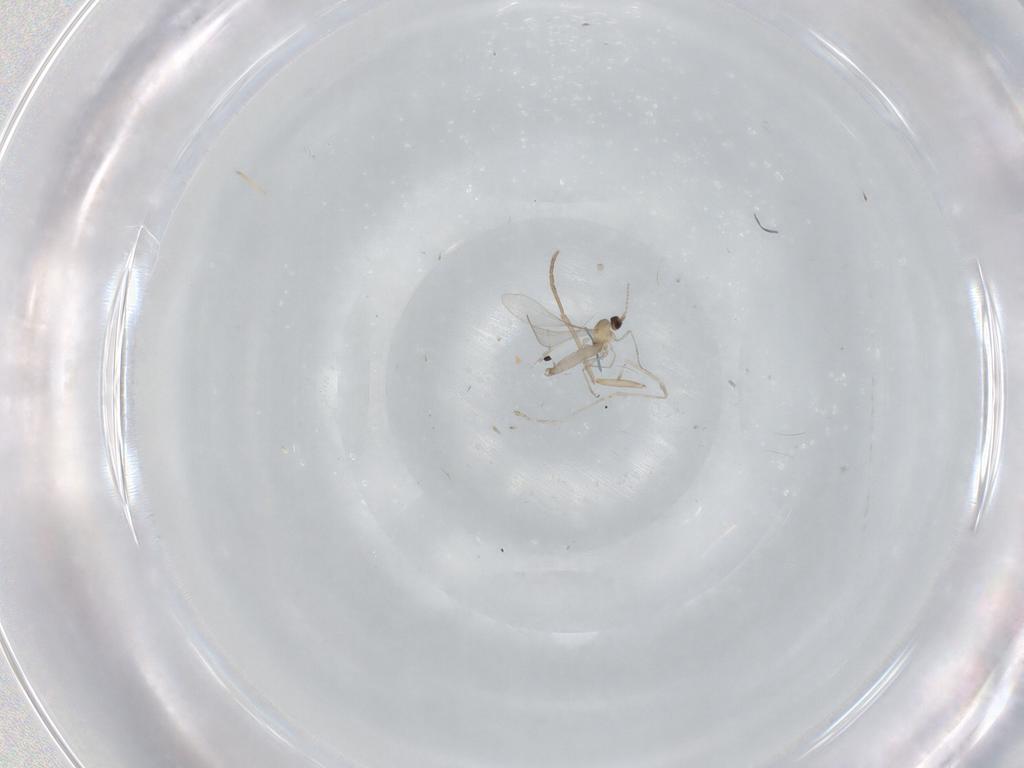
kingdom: Animalia
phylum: Arthropoda
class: Insecta
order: Diptera
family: Cecidomyiidae
